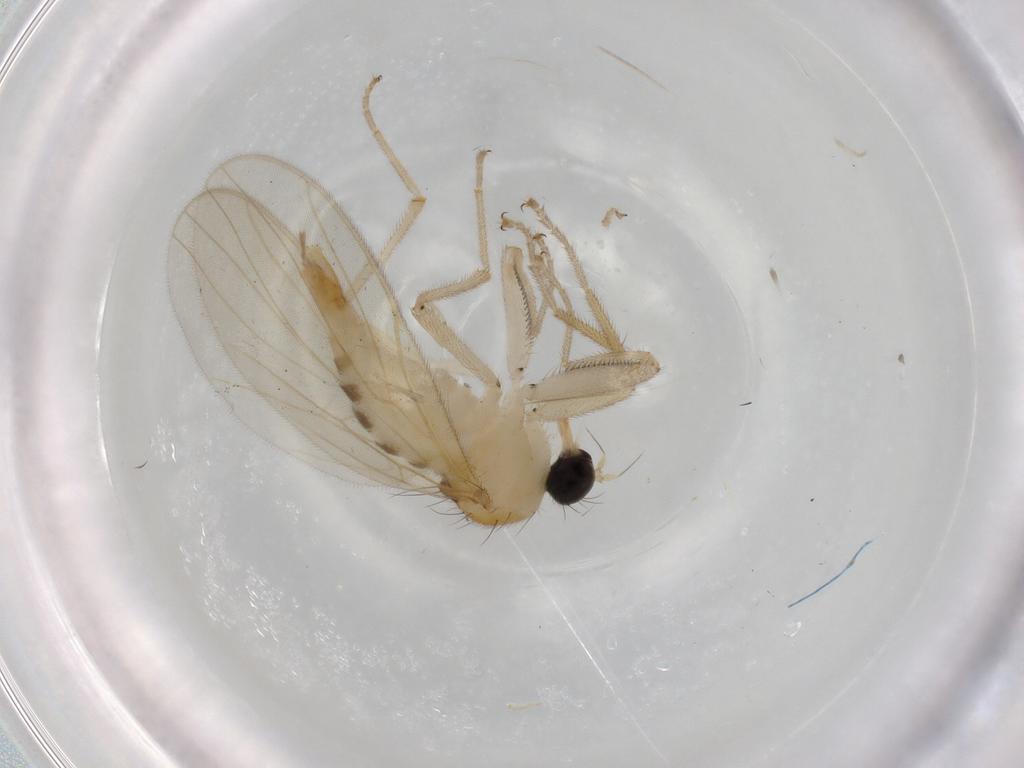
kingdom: Animalia
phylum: Arthropoda
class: Insecta
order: Diptera
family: Hybotidae
